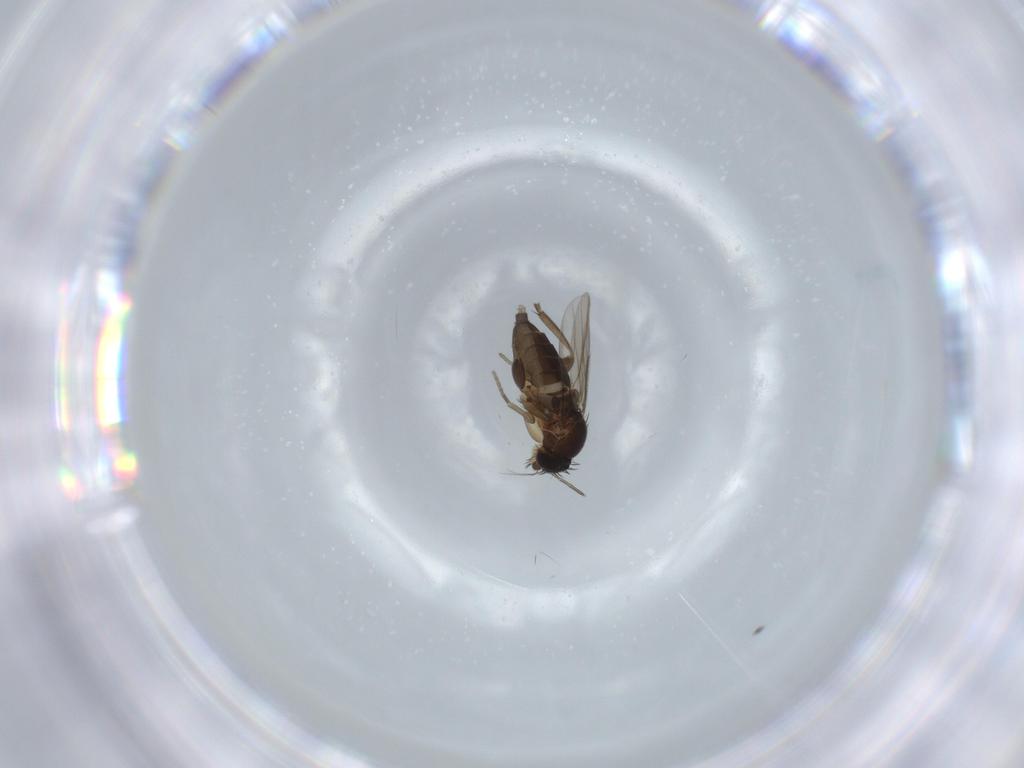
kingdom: Animalia
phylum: Arthropoda
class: Insecta
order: Diptera
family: Phoridae
